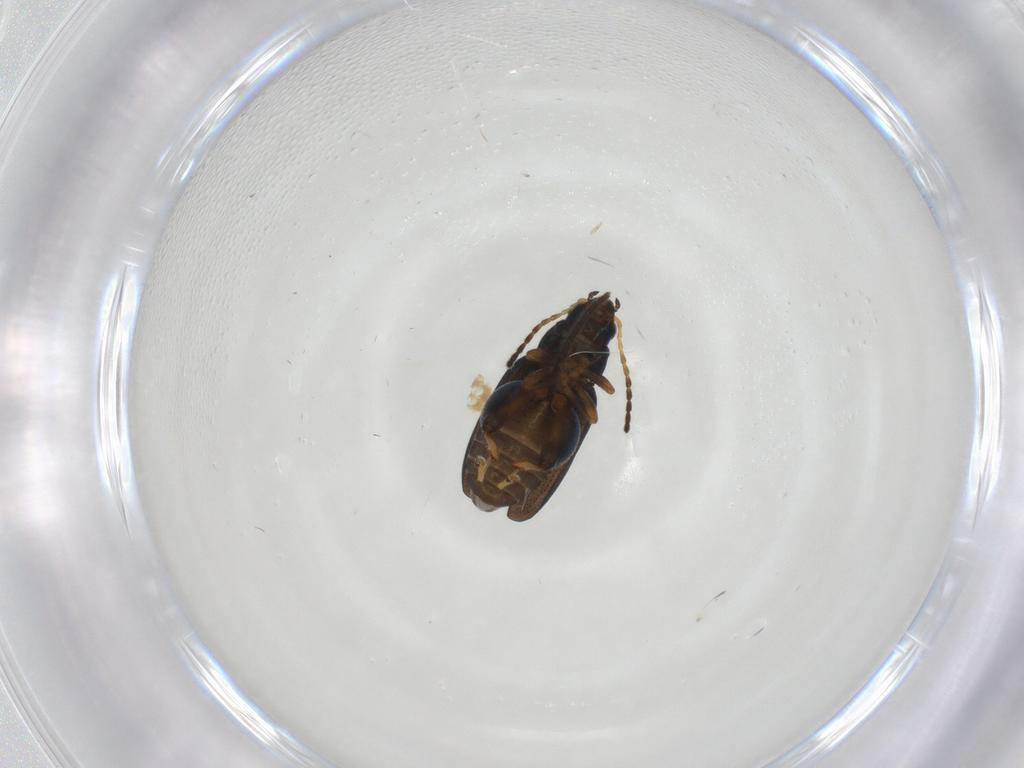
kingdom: Animalia
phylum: Arthropoda
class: Insecta
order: Coleoptera
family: Chrysomelidae
